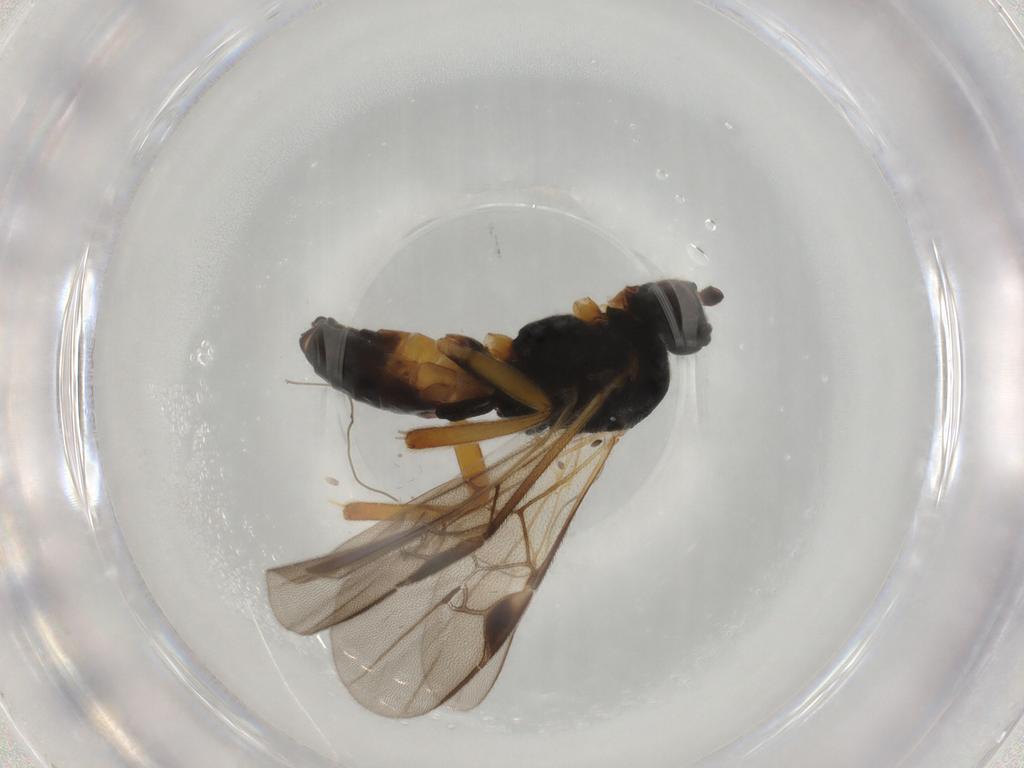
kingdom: Animalia
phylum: Arthropoda
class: Insecta
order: Hymenoptera
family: Braconidae
